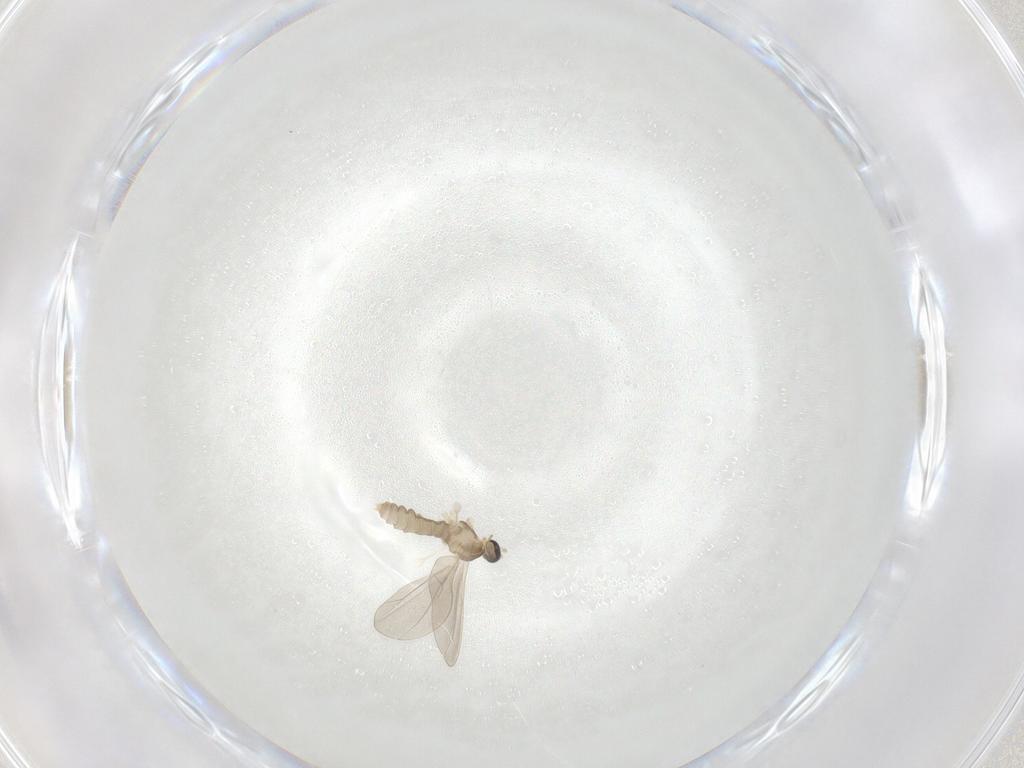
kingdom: Animalia
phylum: Arthropoda
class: Insecta
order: Diptera
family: Cecidomyiidae
